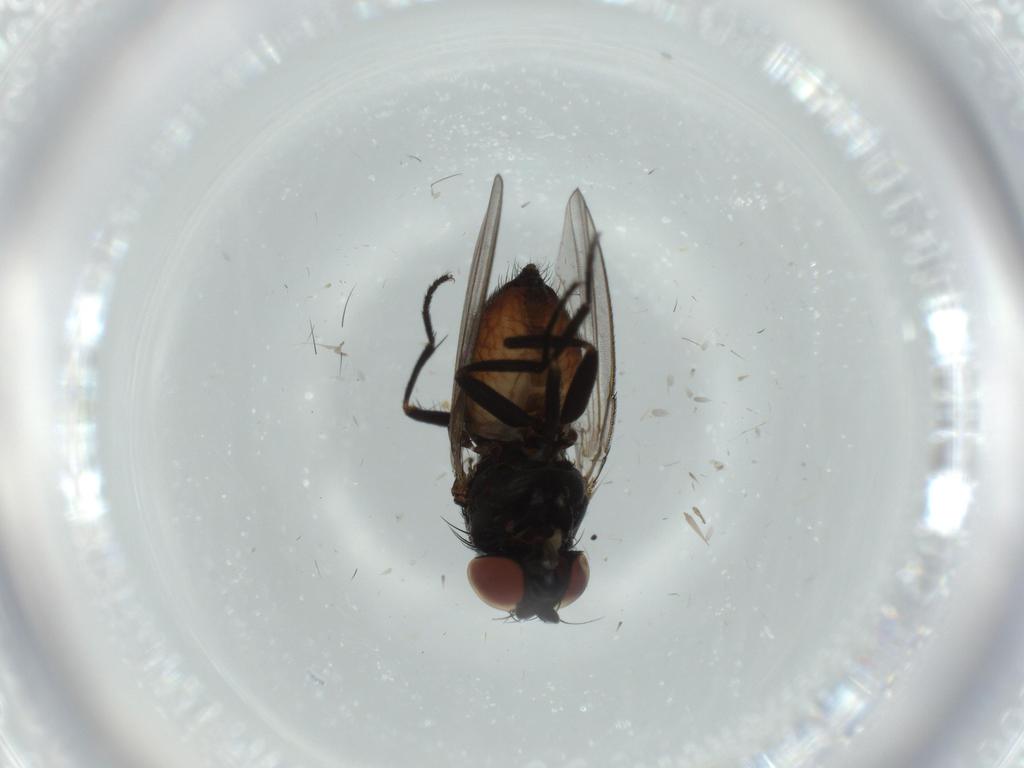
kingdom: Animalia
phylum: Arthropoda
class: Insecta
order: Diptera
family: Cecidomyiidae
